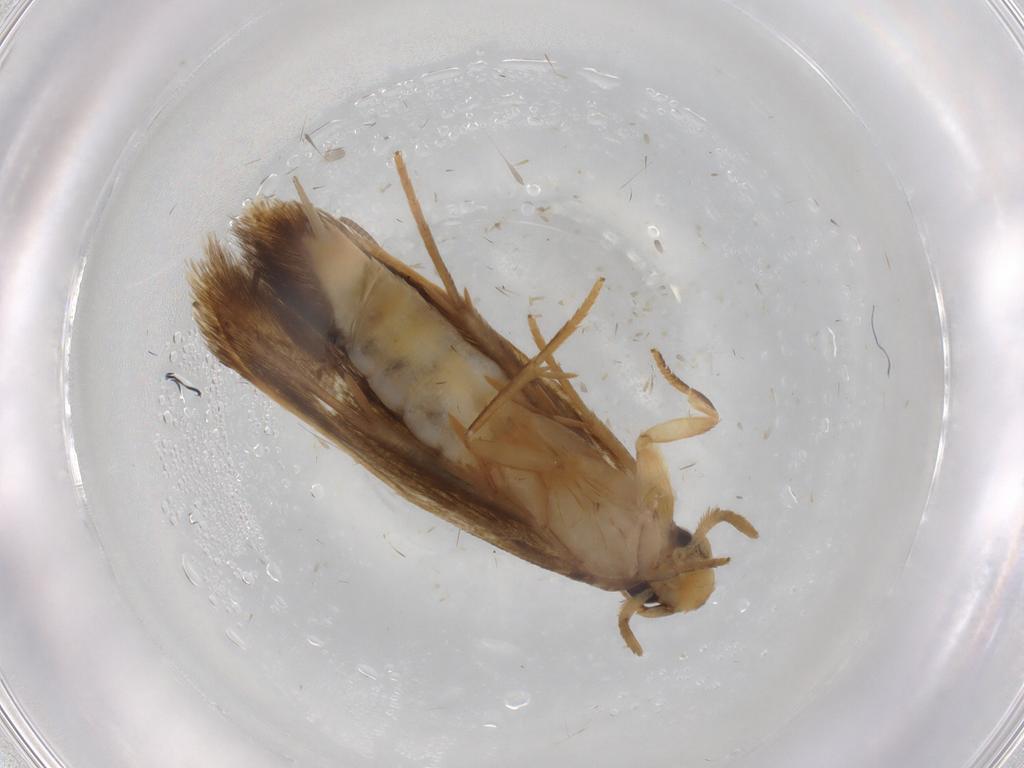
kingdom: Animalia
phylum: Arthropoda
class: Insecta
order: Lepidoptera
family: Tineidae
